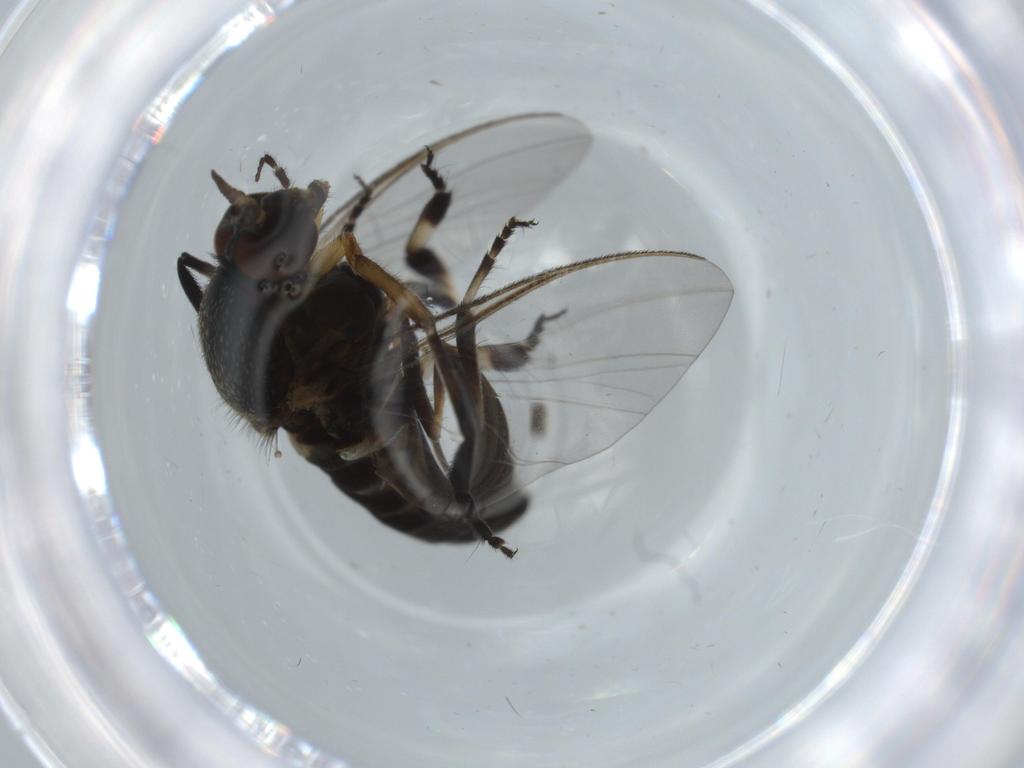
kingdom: Animalia
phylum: Arthropoda
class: Insecta
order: Diptera
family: Sciaridae
